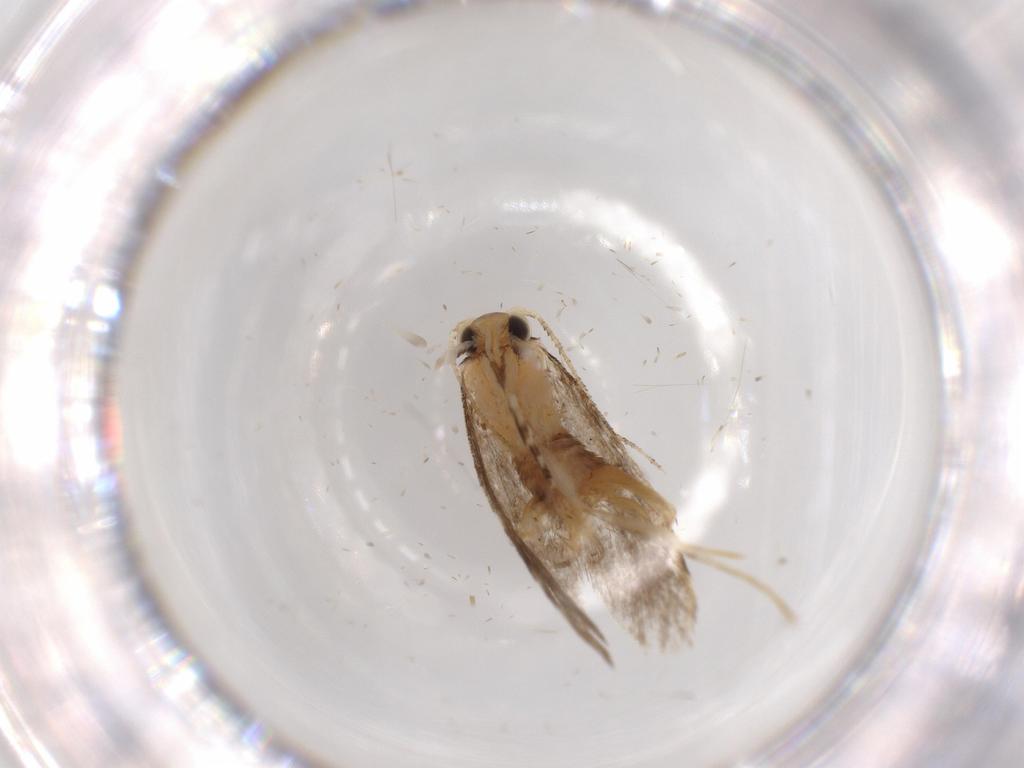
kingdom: Animalia
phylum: Arthropoda
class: Insecta
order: Lepidoptera
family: Tineidae
